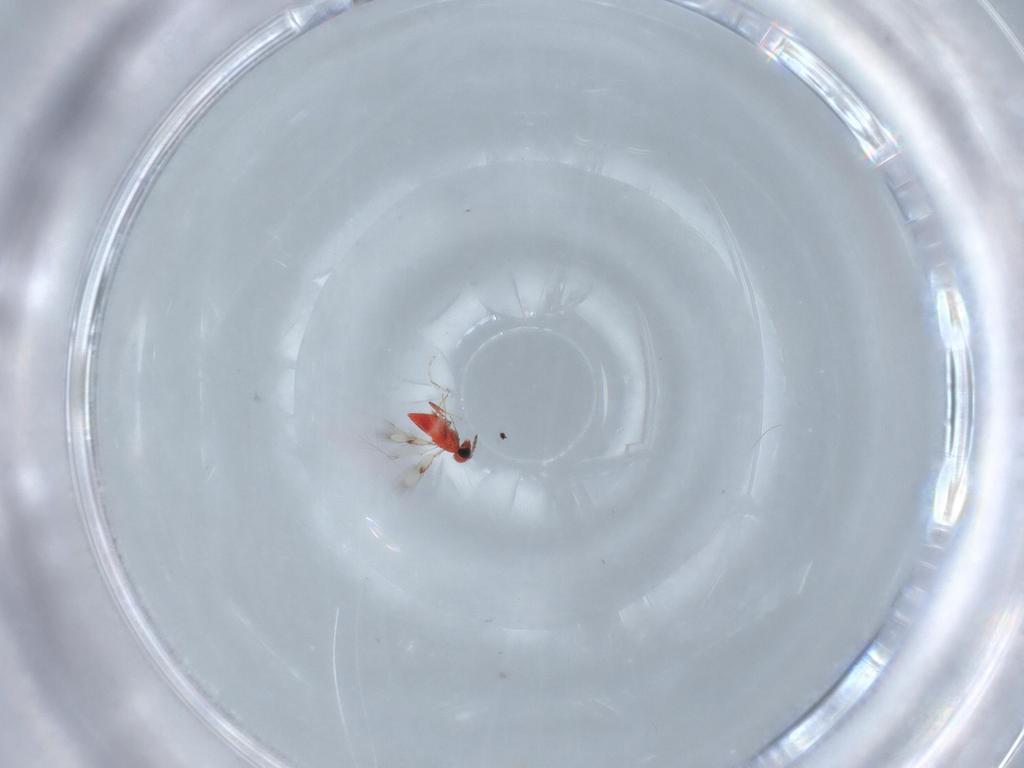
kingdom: Animalia
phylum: Arthropoda
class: Insecta
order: Hymenoptera
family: Trichogrammatidae
